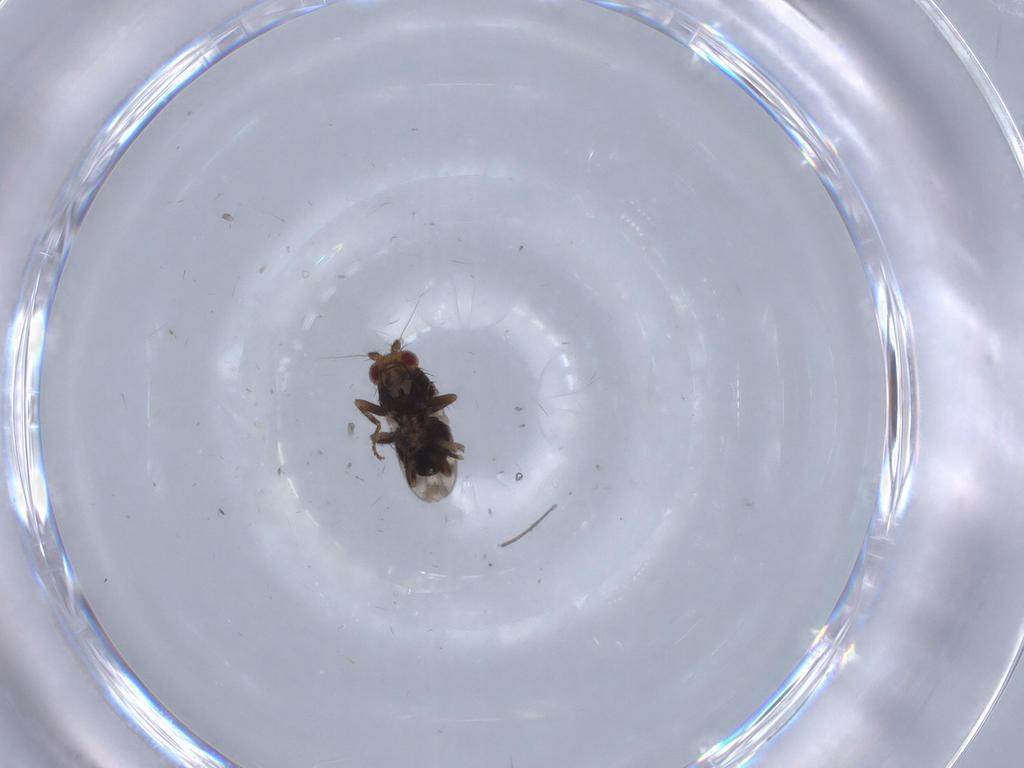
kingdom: Animalia
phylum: Arthropoda
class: Insecta
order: Diptera
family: Sphaeroceridae
